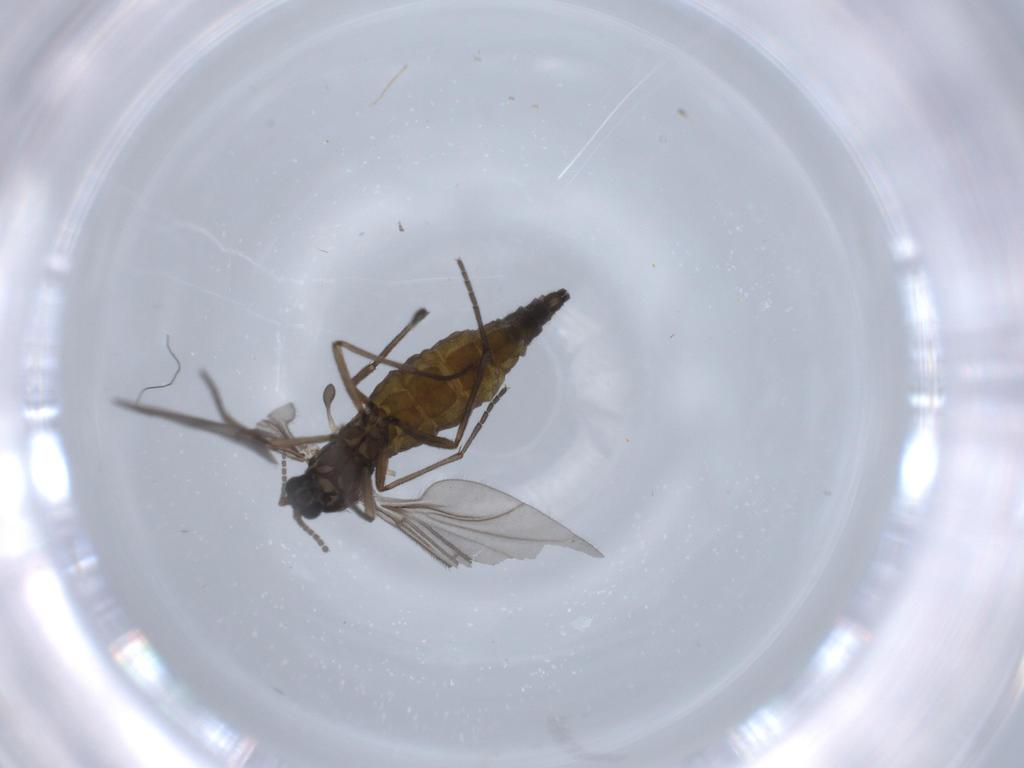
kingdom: Animalia
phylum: Arthropoda
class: Insecta
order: Diptera
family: Sciaridae
